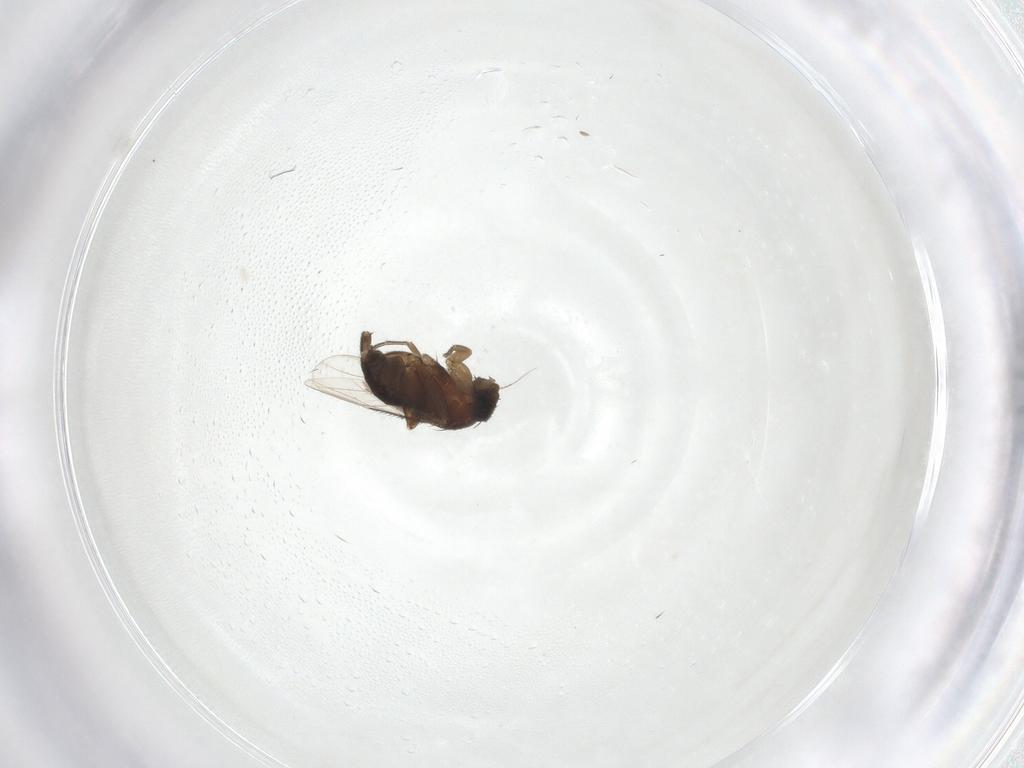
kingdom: Animalia
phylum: Arthropoda
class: Insecta
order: Diptera
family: Phoridae
